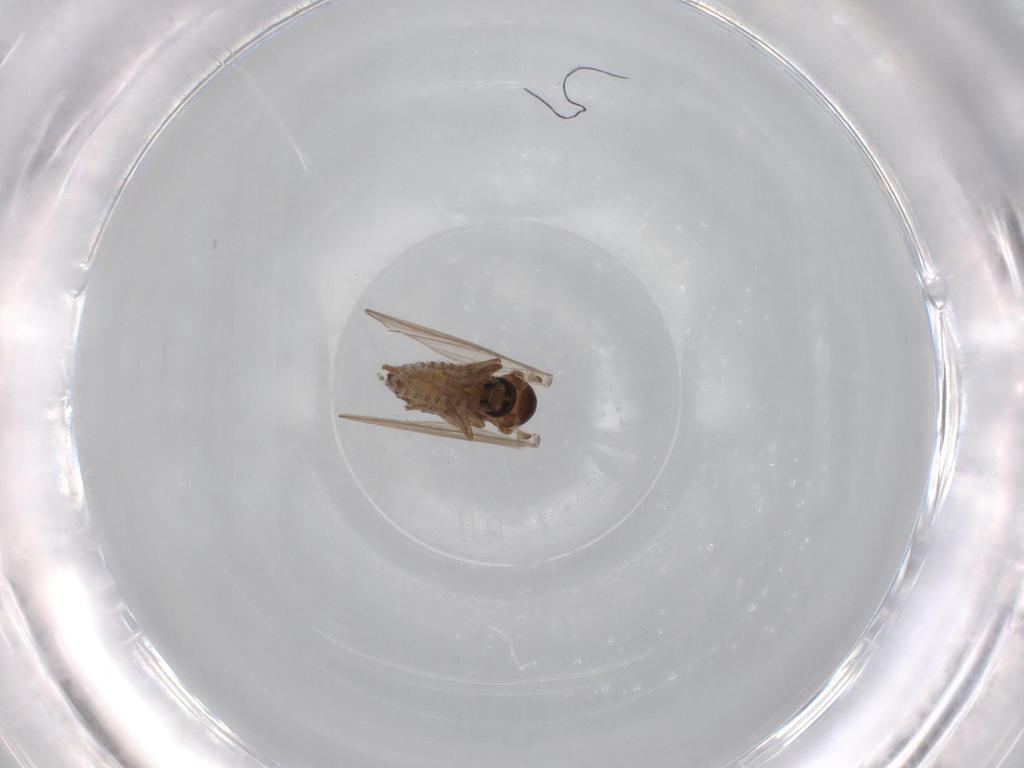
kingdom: Animalia
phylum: Arthropoda
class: Insecta
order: Diptera
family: Psychodidae
